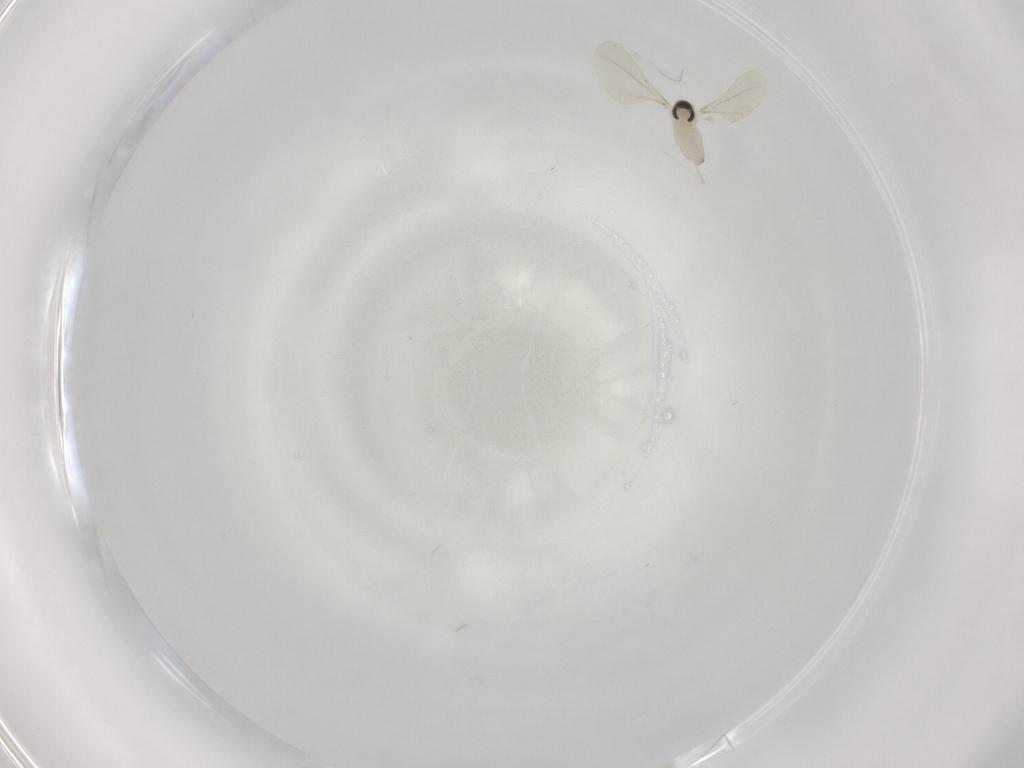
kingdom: Animalia
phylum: Arthropoda
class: Insecta
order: Diptera
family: Cecidomyiidae
